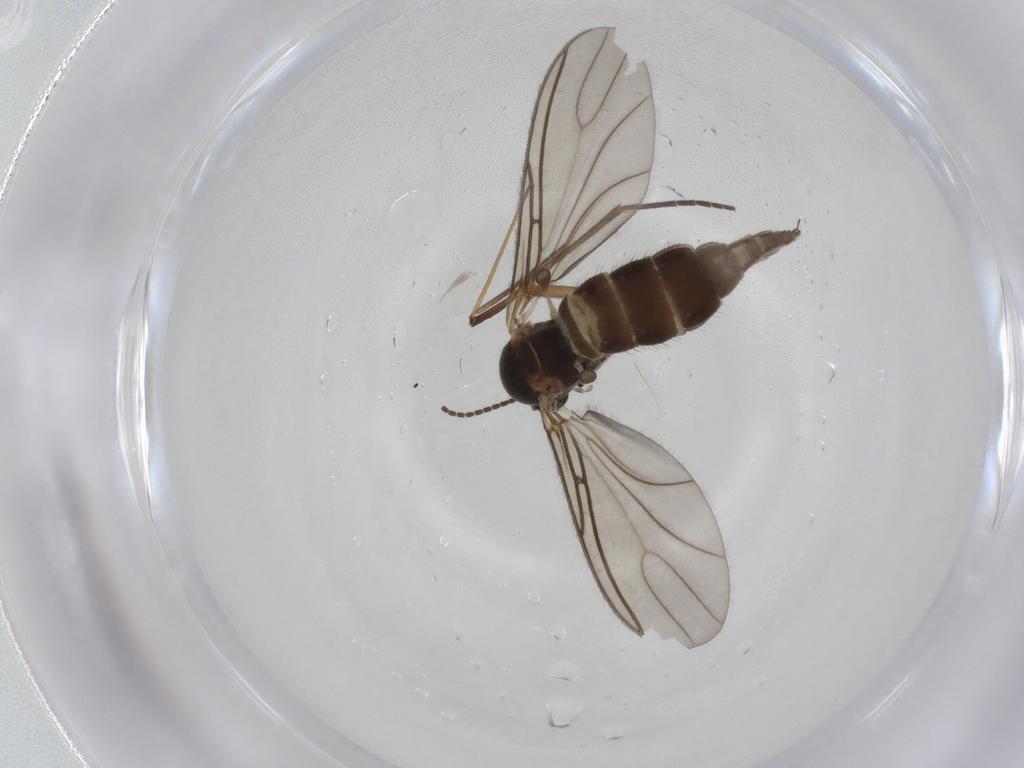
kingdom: Animalia
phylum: Arthropoda
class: Insecta
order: Diptera
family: Sciaridae
